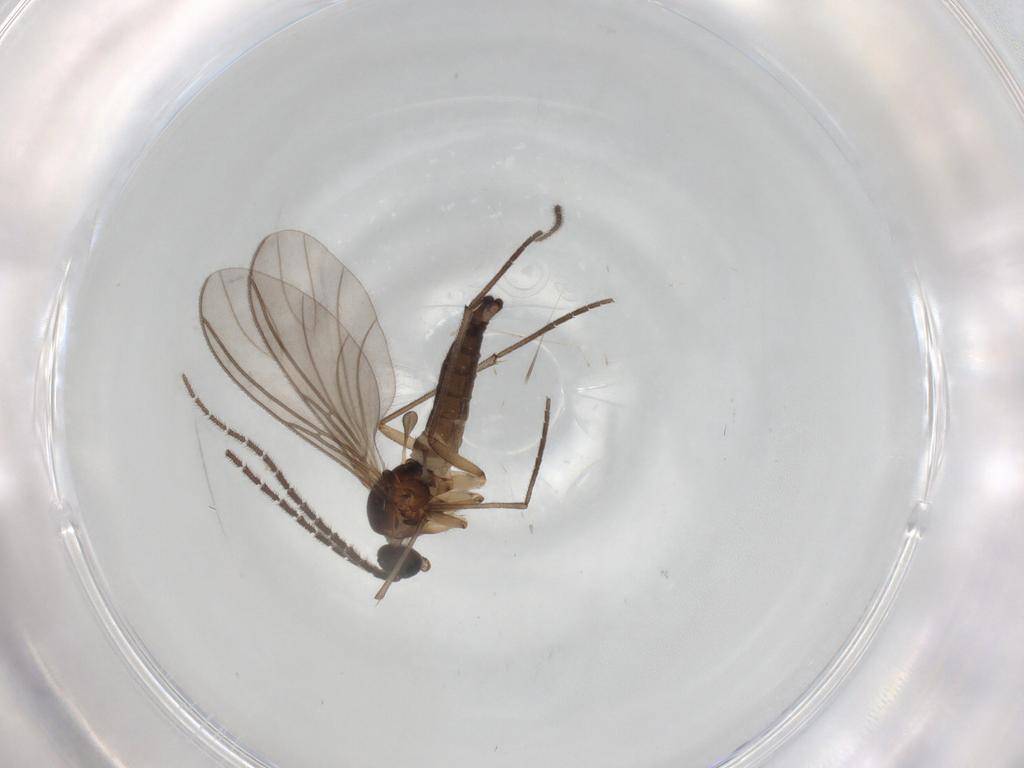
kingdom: Animalia
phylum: Arthropoda
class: Insecta
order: Diptera
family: Sciaridae
